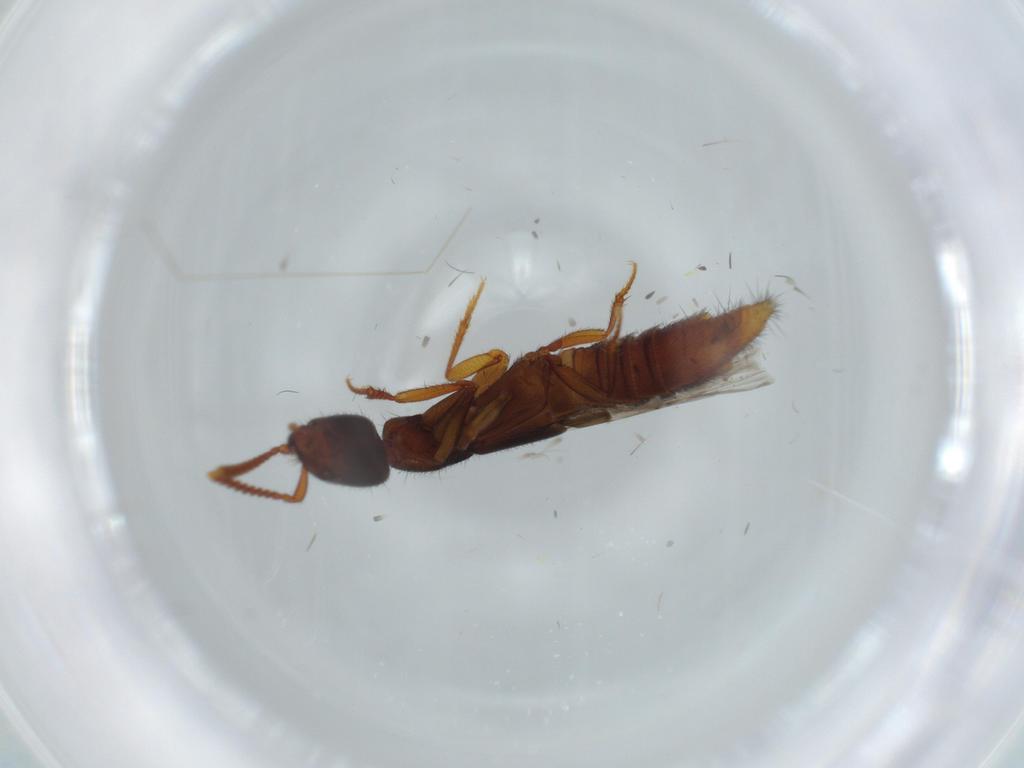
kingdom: Animalia
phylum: Arthropoda
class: Insecta
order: Coleoptera
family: Staphylinidae
